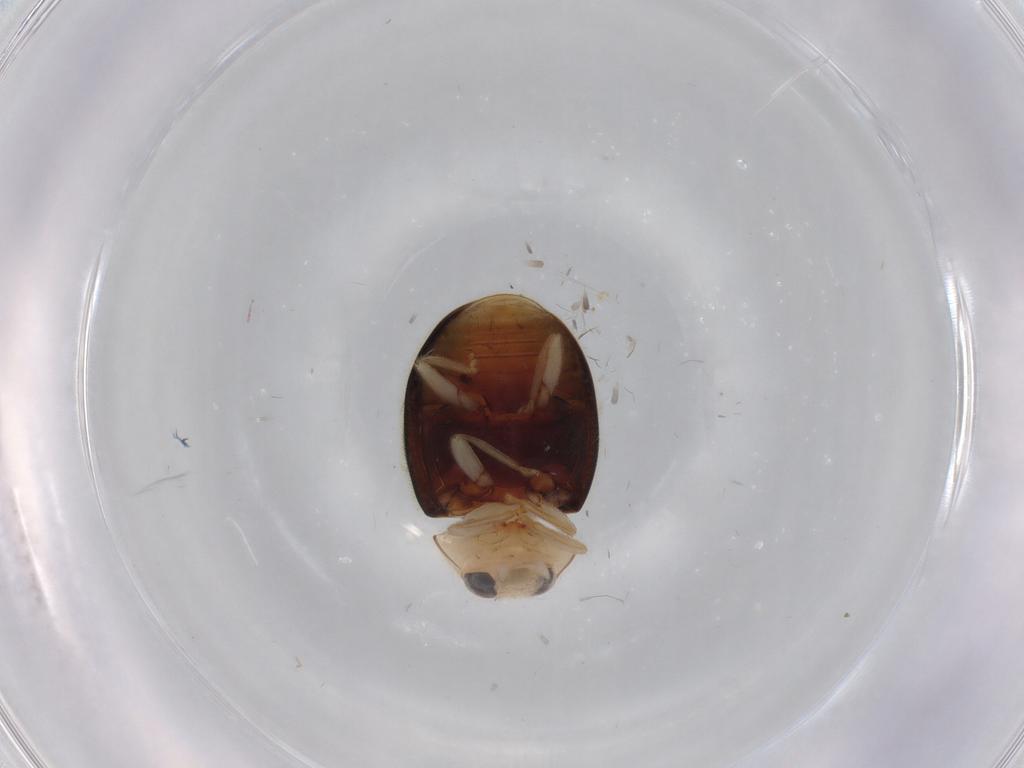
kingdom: Animalia
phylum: Arthropoda
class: Insecta
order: Coleoptera
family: Coccinellidae
